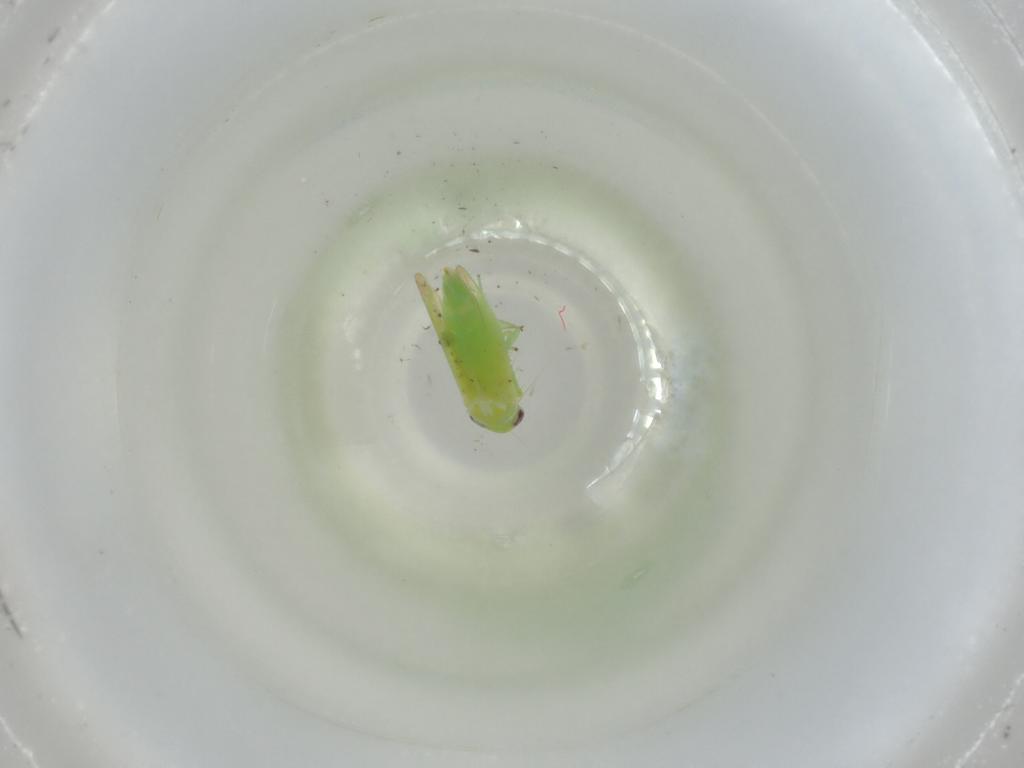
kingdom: Animalia
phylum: Arthropoda
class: Insecta
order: Hemiptera
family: Cicadellidae
